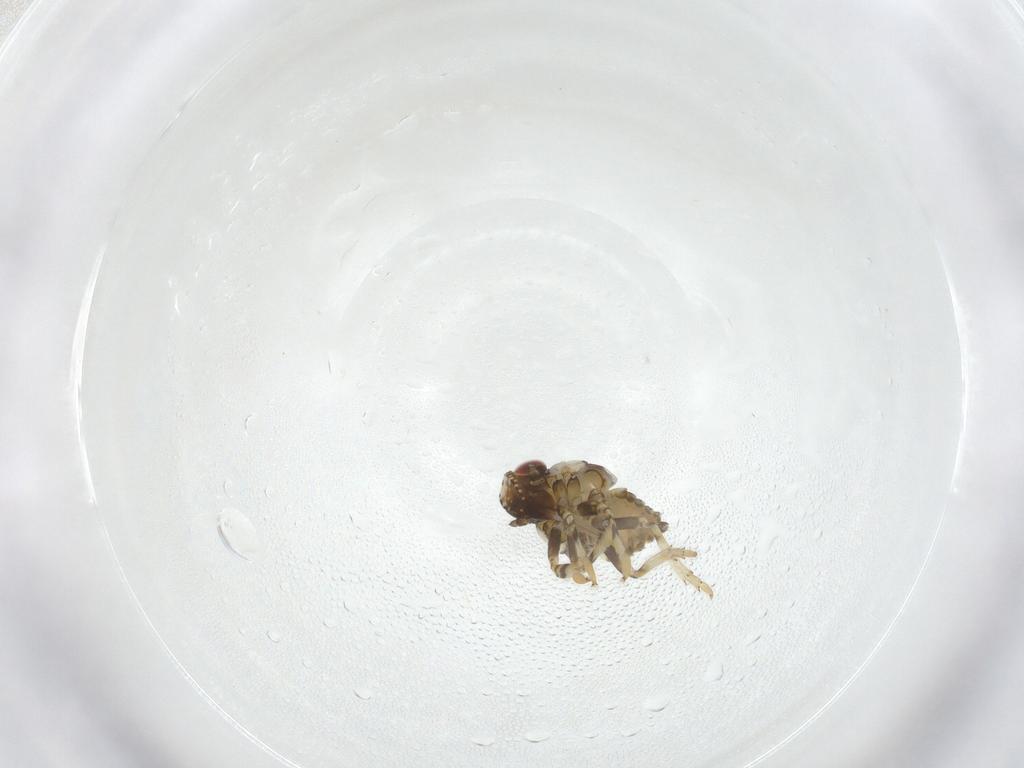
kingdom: Animalia
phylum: Arthropoda
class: Insecta
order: Hemiptera
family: Issidae
